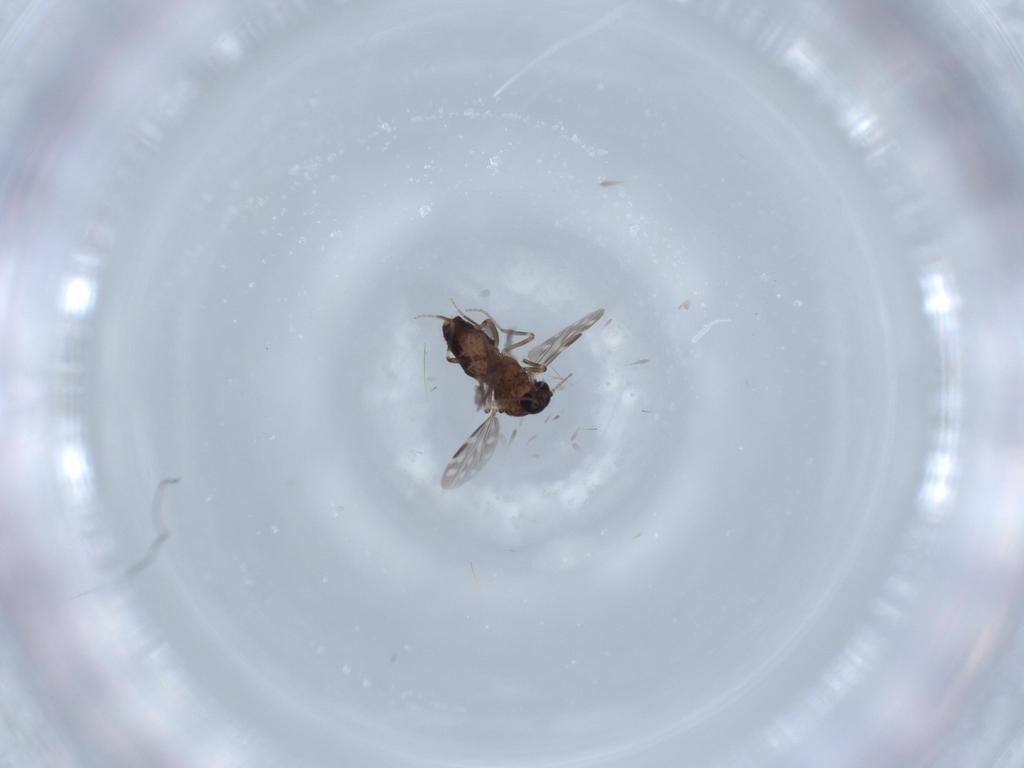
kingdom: Animalia
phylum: Arthropoda
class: Insecta
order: Diptera
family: Ceratopogonidae
